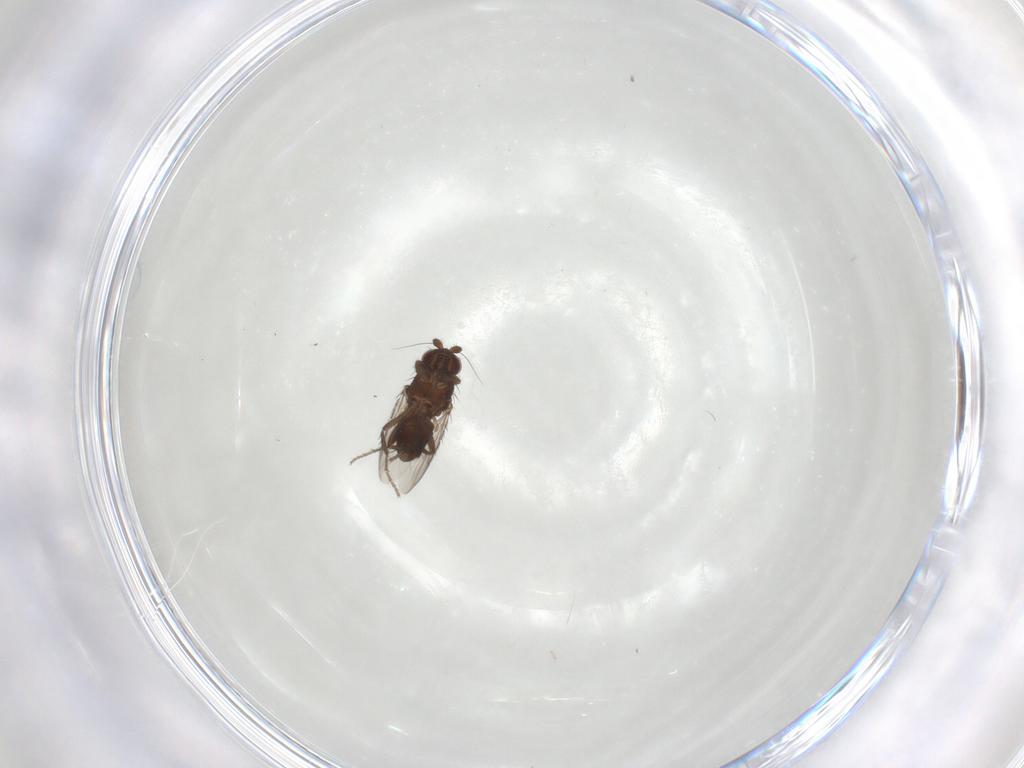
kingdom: Animalia
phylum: Arthropoda
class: Insecta
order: Diptera
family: Sphaeroceridae
